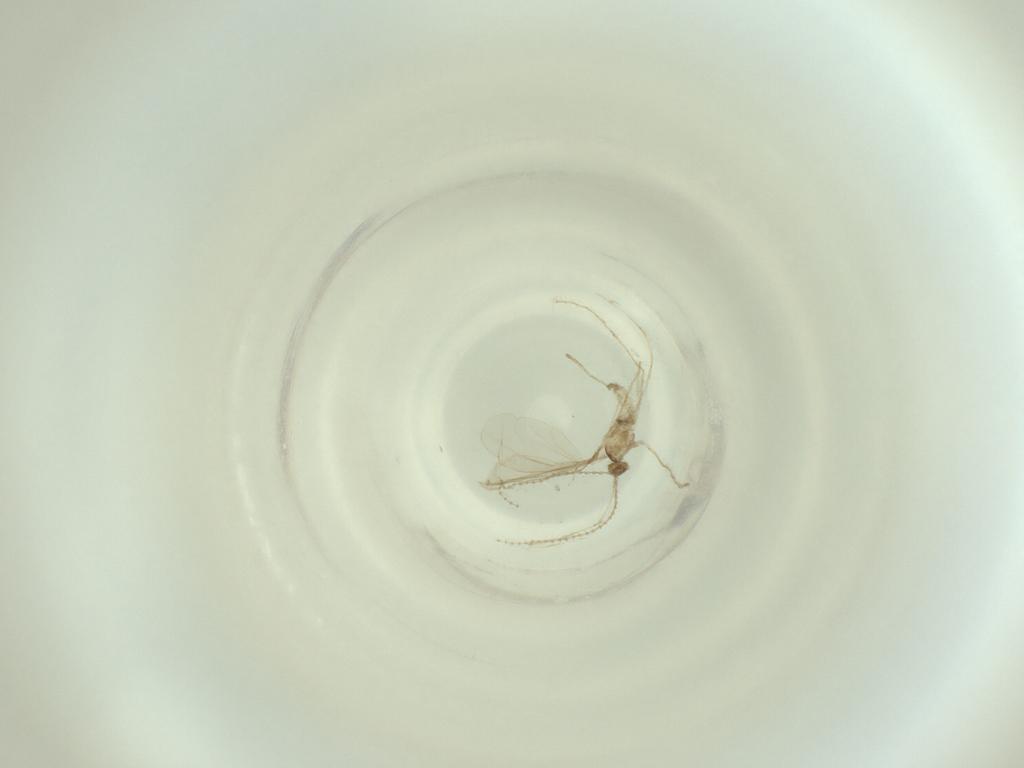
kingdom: Animalia
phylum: Arthropoda
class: Insecta
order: Diptera
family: Cecidomyiidae
